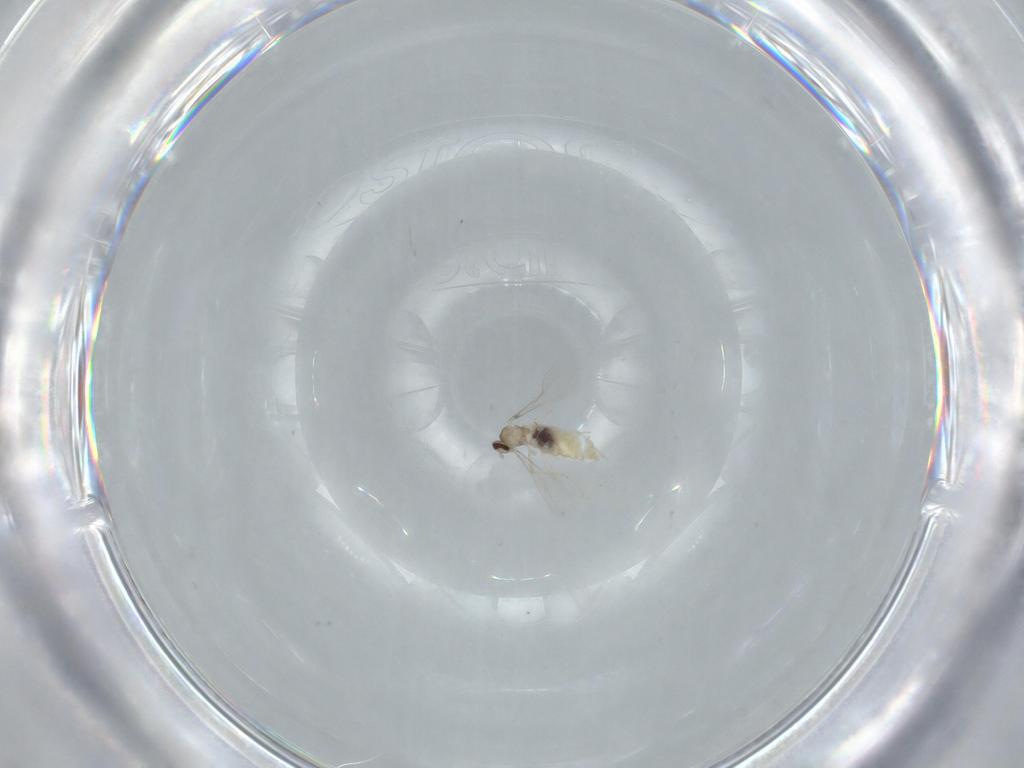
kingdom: Animalia
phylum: Arthropoda
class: Insecta
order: Diptera
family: Cecidomyiidae
